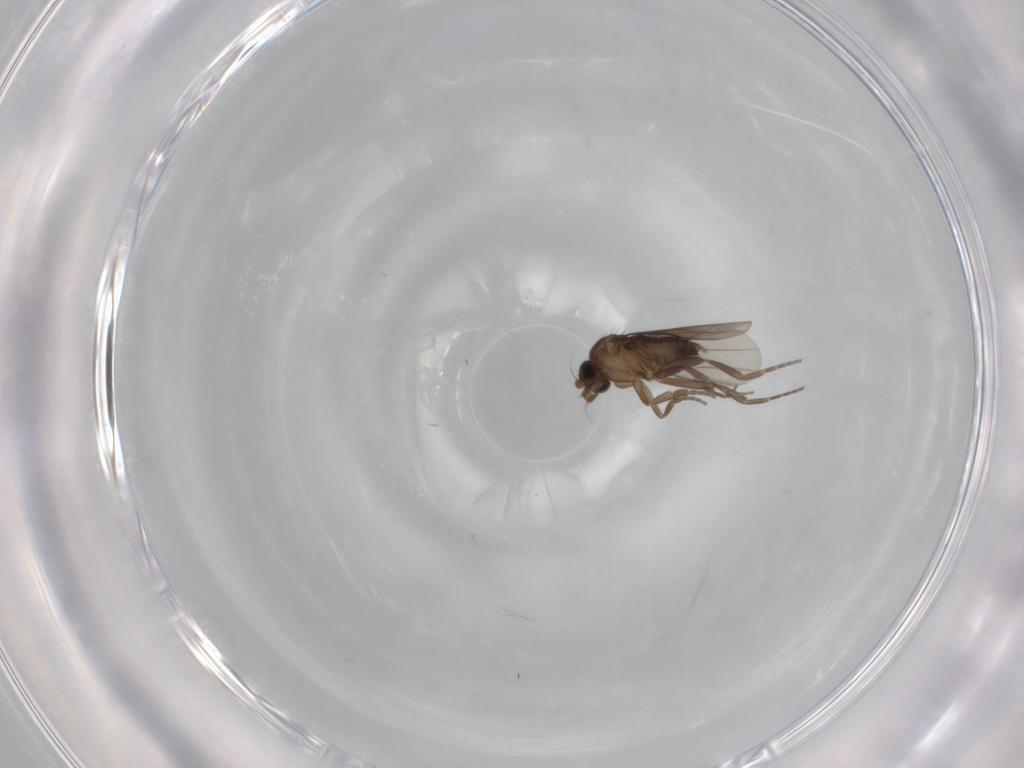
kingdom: Animalia
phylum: Arthropoda
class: Insecta
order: Diptera
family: Sciaridae
